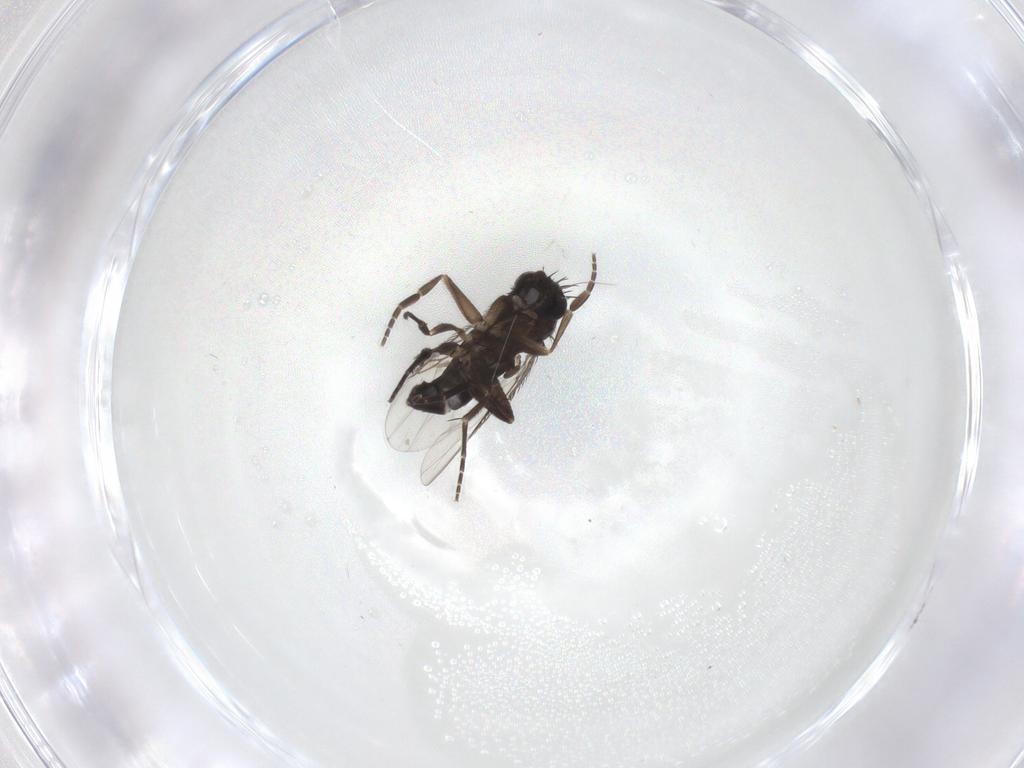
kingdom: Animalia
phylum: Arthropoda
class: Insecta
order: Diptera
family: Phoridae
